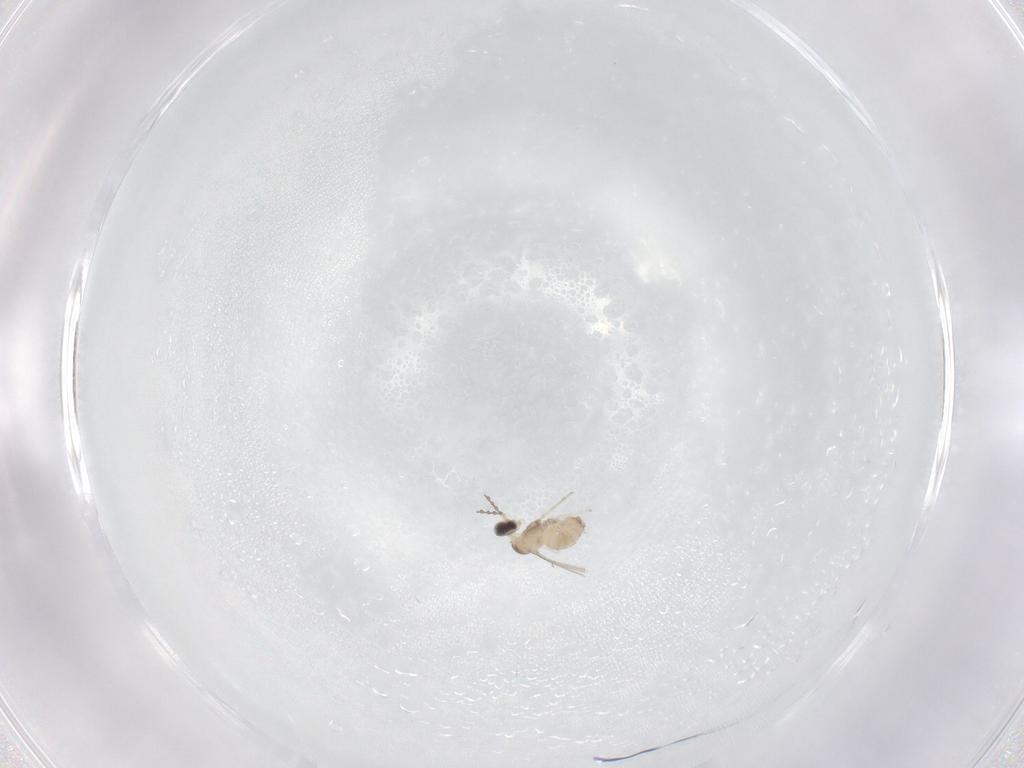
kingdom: Animalia
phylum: Arthropoda
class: Insecta
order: Diptera
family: Cecidomyiidae
